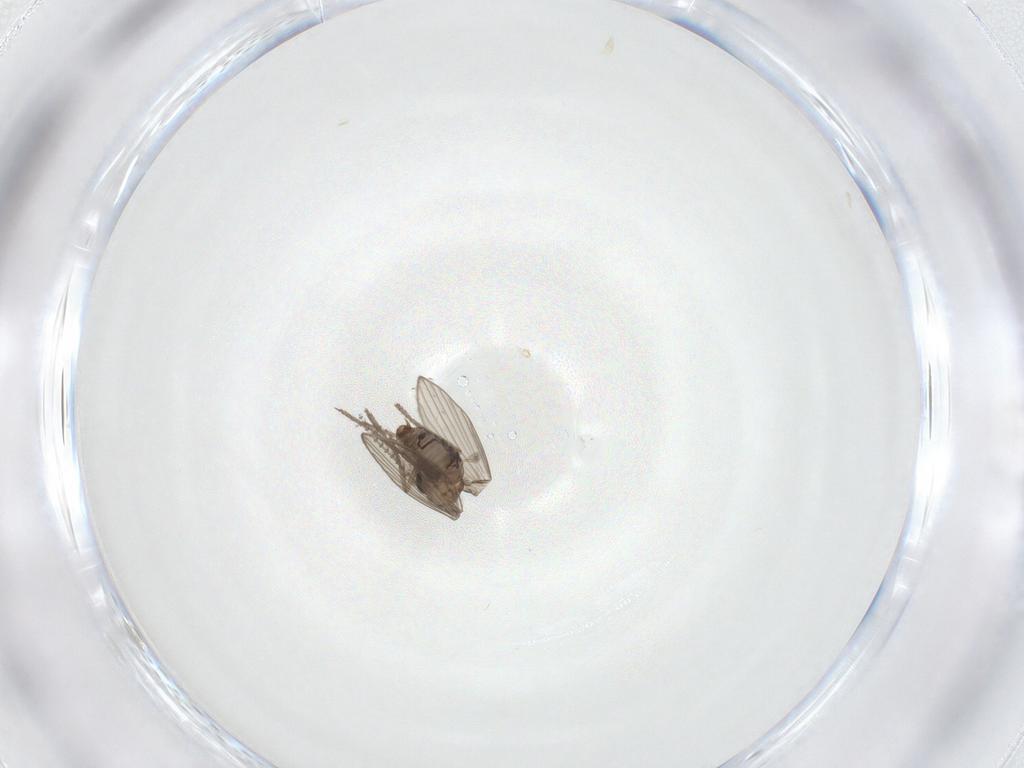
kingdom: Animalia
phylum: Arthropoda
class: Insecta
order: Diptera
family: Psychodidae
